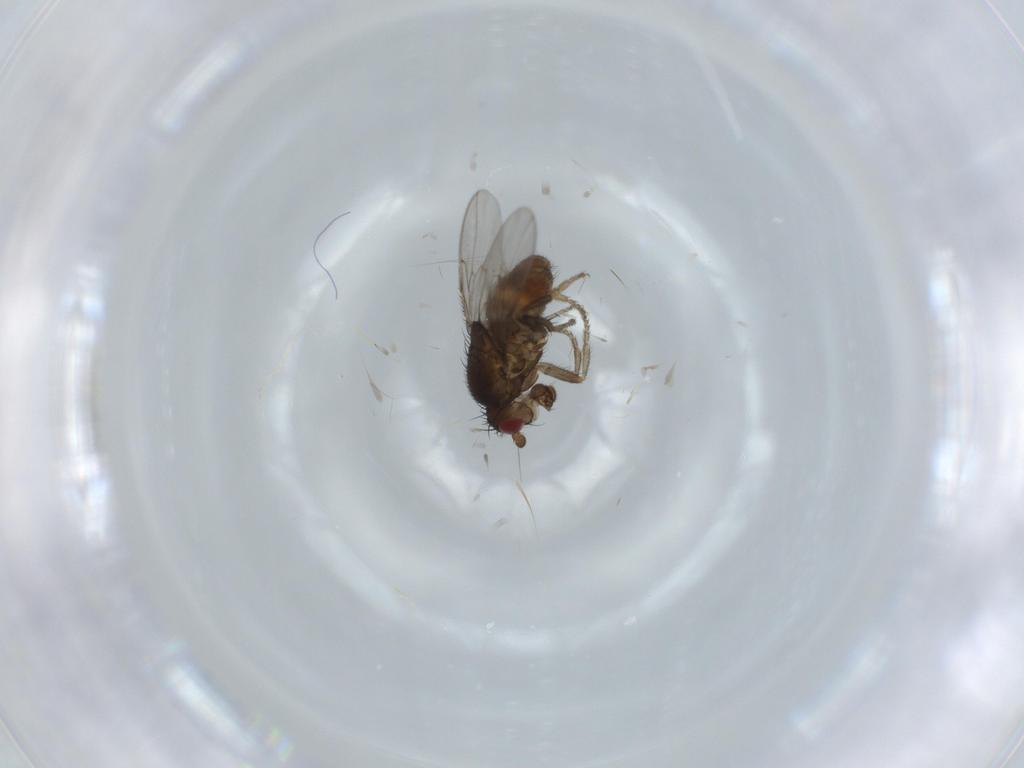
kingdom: Animalia
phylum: Arthropoda
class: Insecta
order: Diptera
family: Sphaeroceridae
